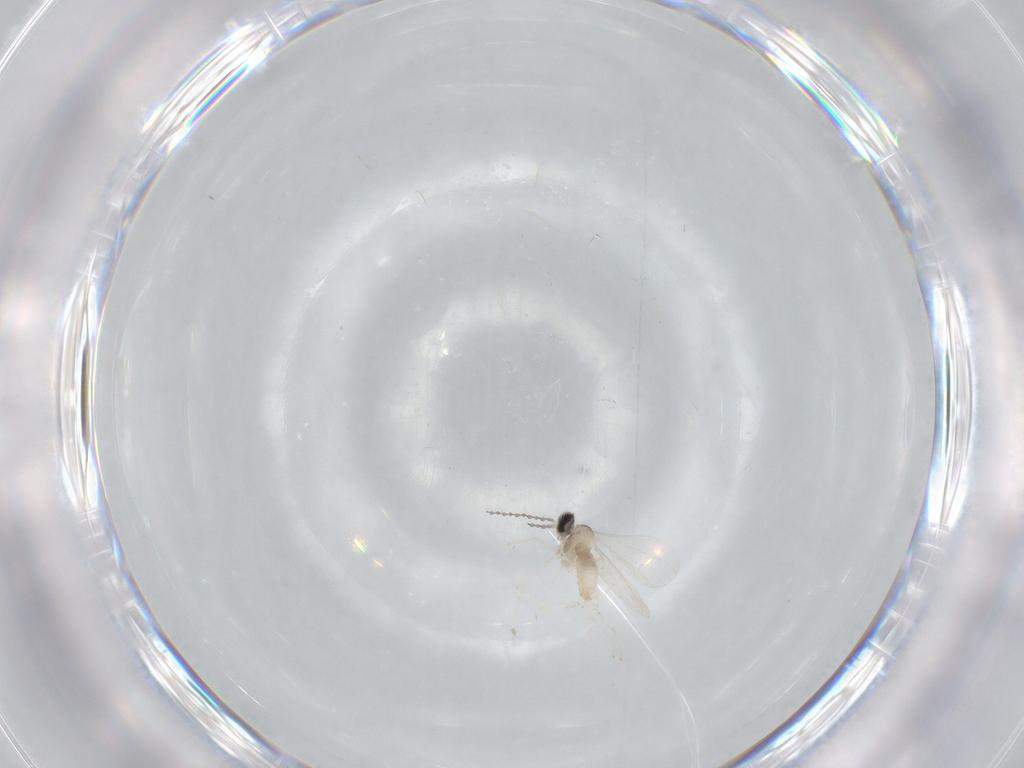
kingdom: Animalia
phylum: Arthropoda
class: Insecta
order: Diptera
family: Cecidomyiidae
